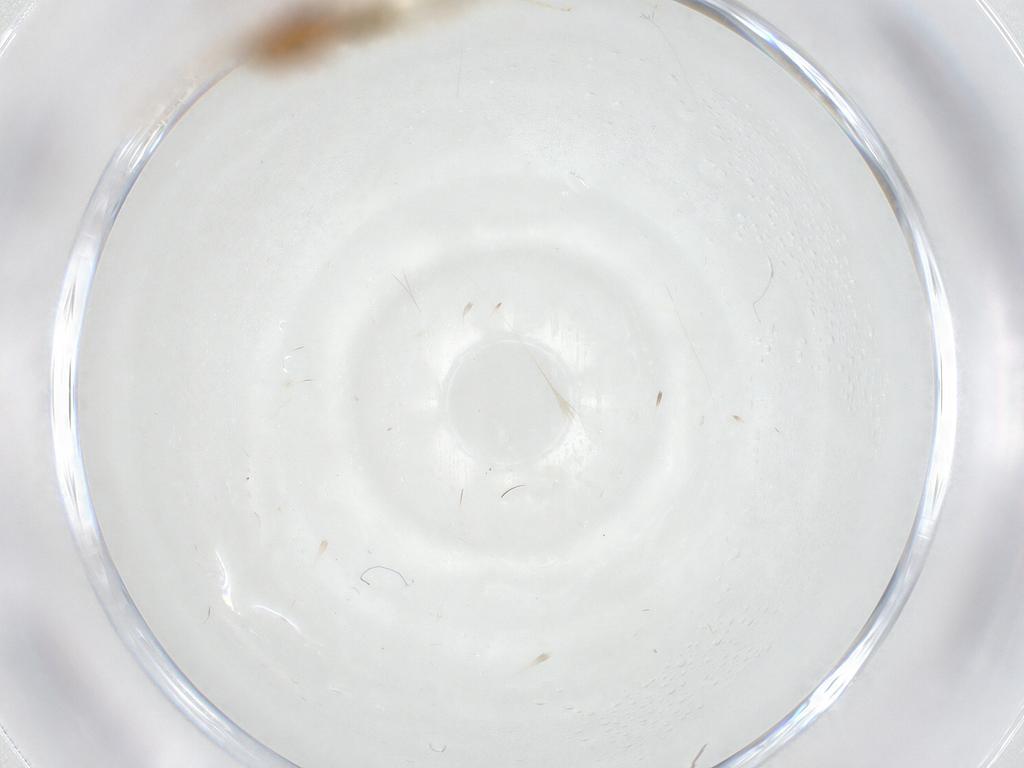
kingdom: Animalia
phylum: Arthropoda
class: Insecta
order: Hymenoptera
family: Formicidae
